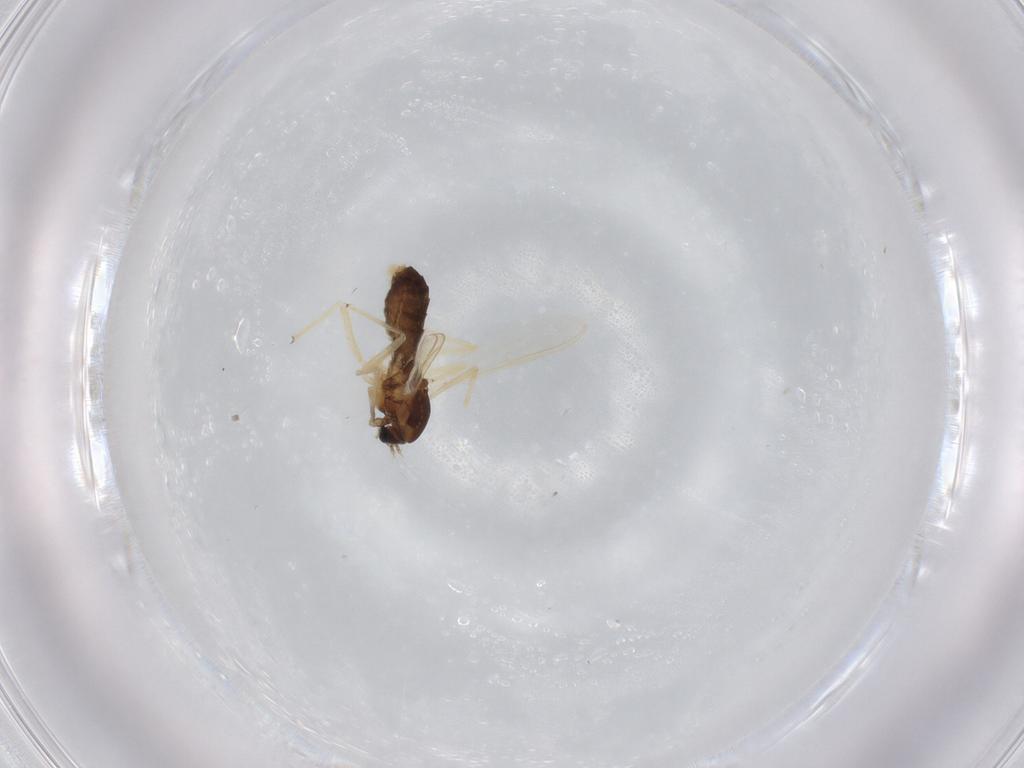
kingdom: Animalia
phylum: Arthropoda
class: Insecta
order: Diptera
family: Chironomidae
